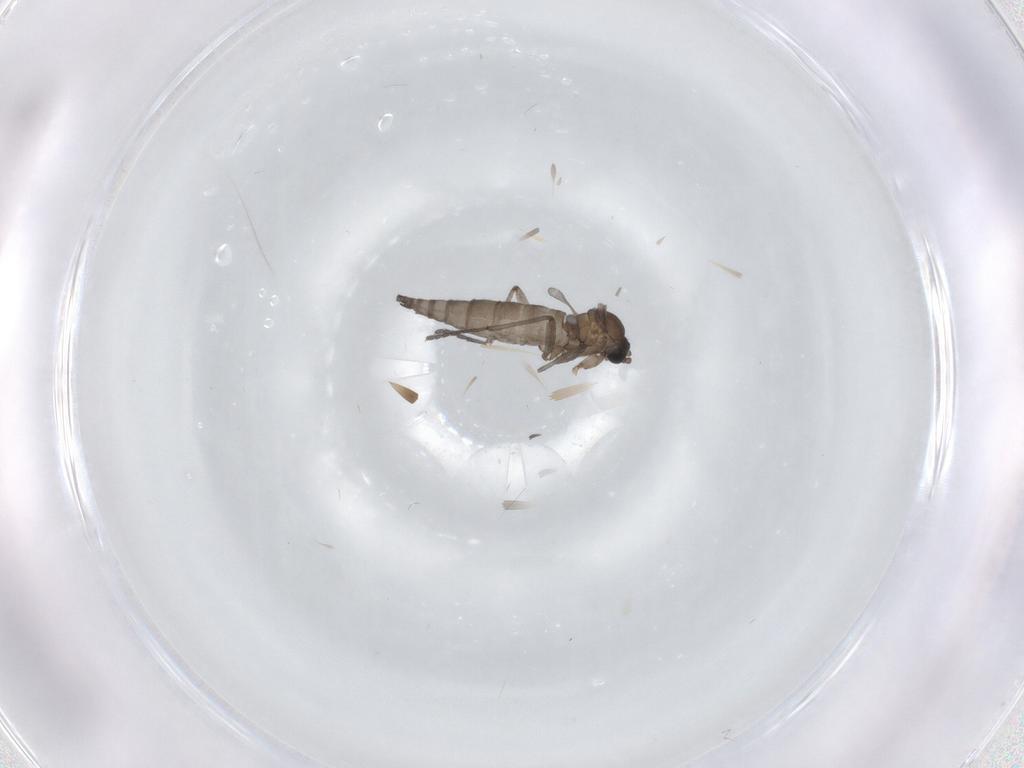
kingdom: Animalia
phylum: Arthropoda
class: Insecta
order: Diptera
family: Sciaridae
